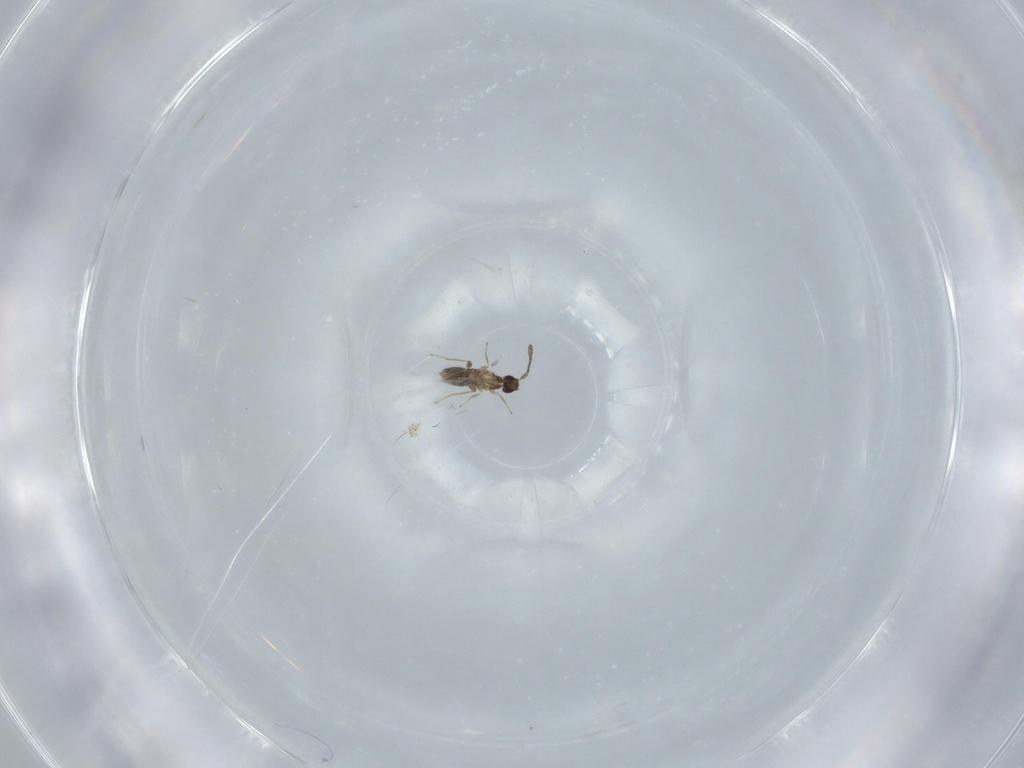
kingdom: Animalia
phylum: Arthropoda
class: Insecta
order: Hymenoptera
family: Mymaridae
